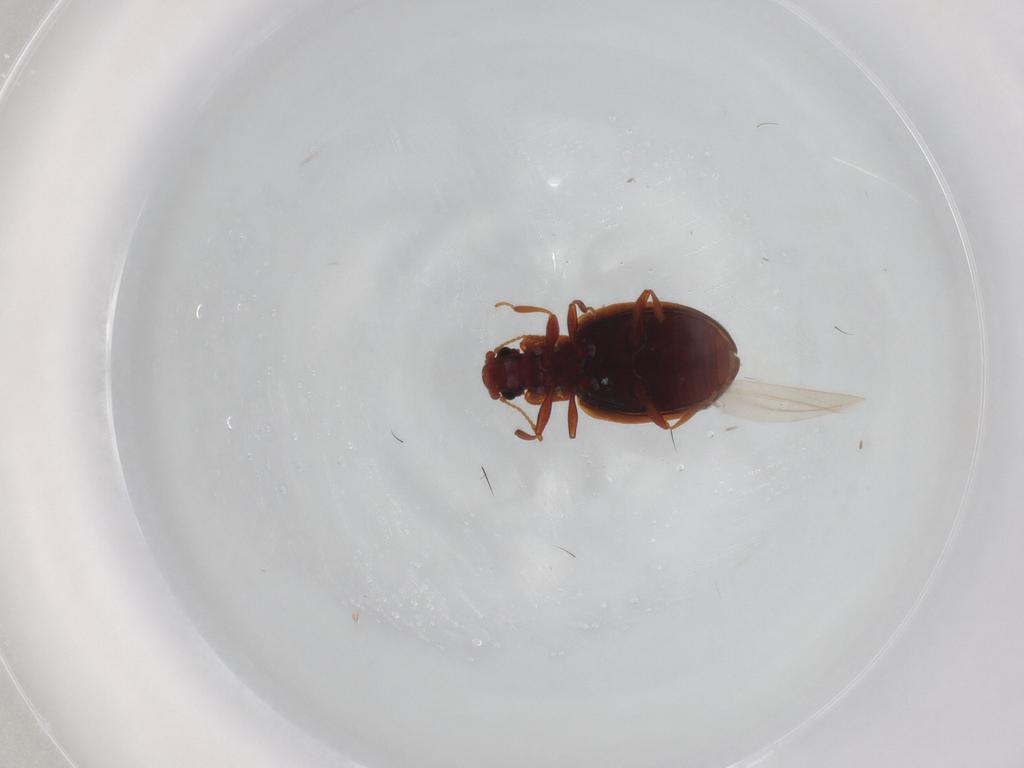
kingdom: Animalia
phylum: Arthropoda
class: Insecta
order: Coleoptera
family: Latridiidae
